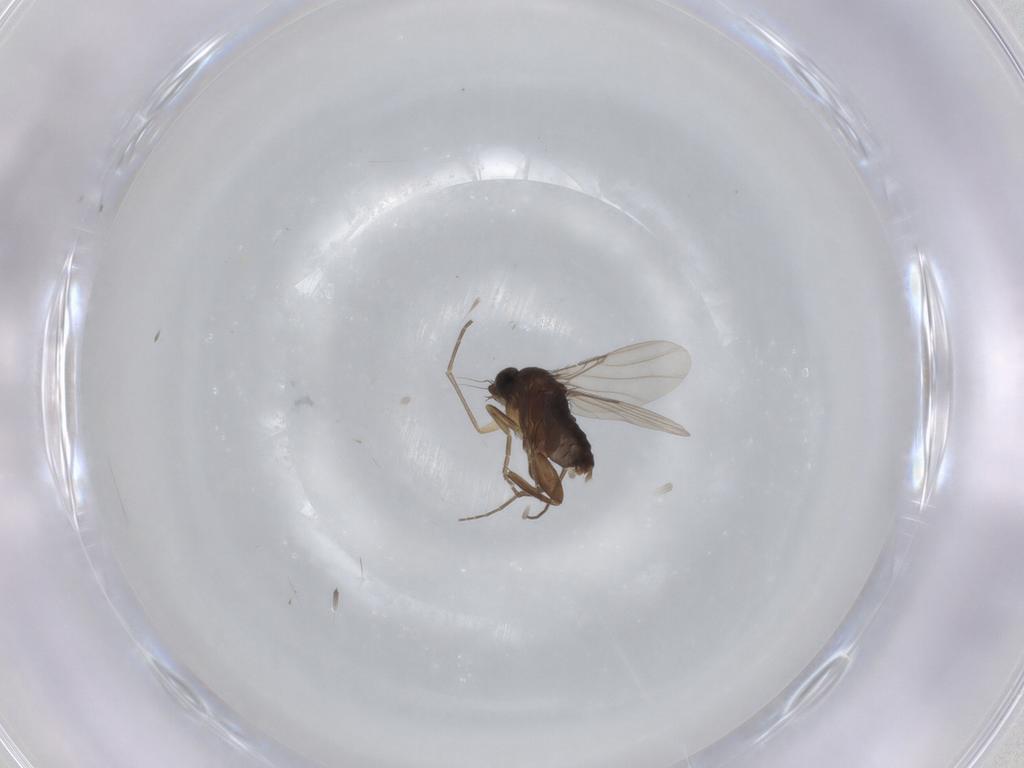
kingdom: Animalia
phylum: Arthropoda
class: Insecta
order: Diptera
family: Phoridae
